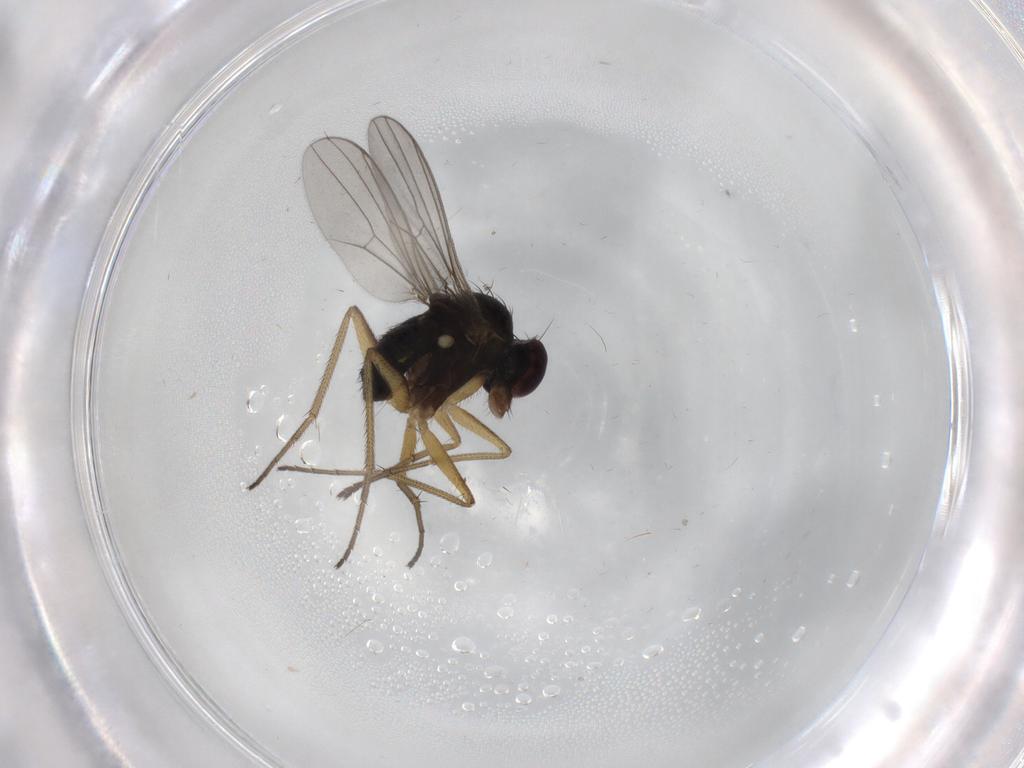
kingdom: Animalia
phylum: Arthropoda
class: Insecta
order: Diptera
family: Dolichopodidae
